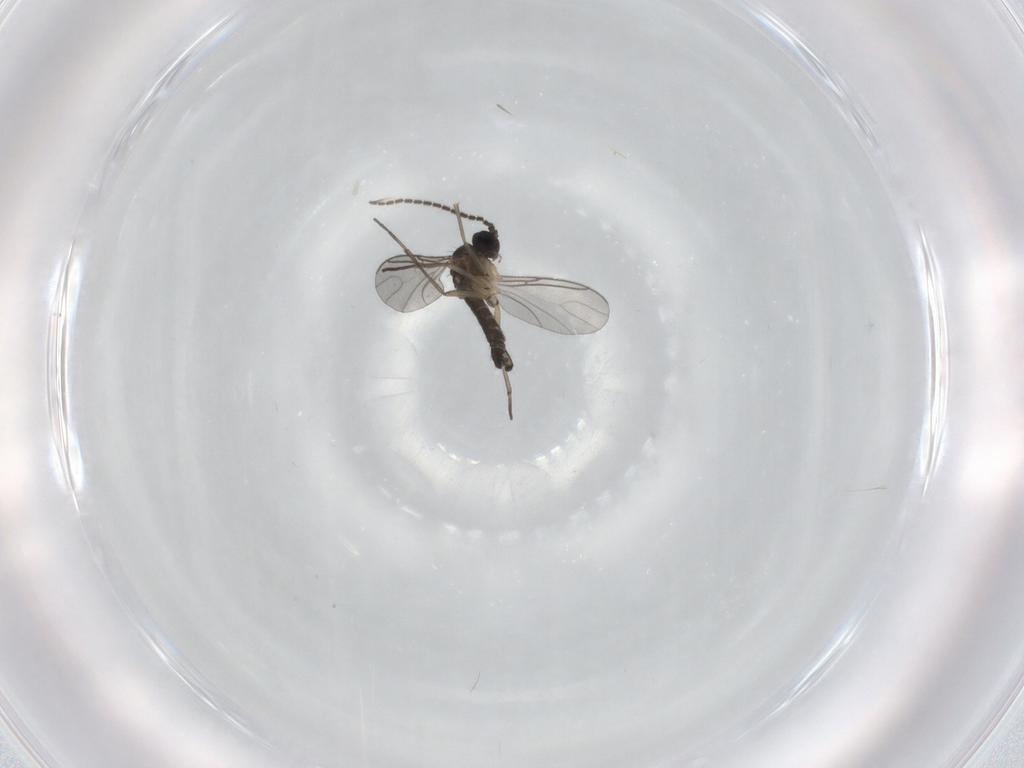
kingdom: Animalia
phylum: Arthropoda
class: Insecta
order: Diptera
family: Sciaridae
